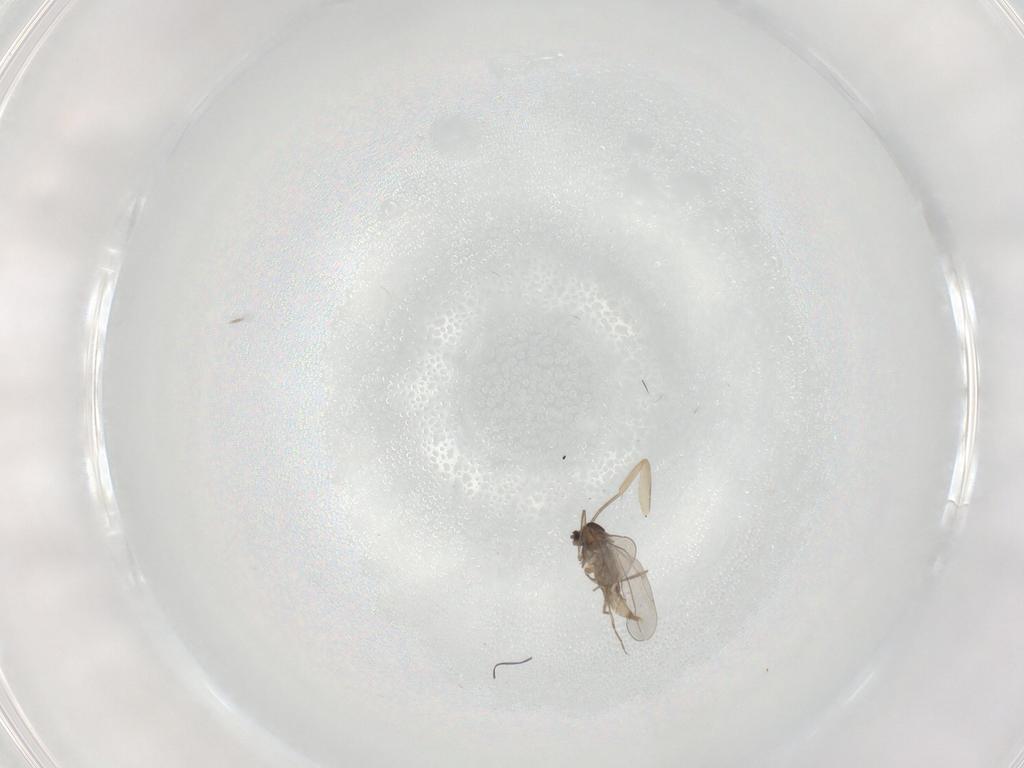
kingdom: Animalia
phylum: Arthropoda
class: Insecta
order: Diptera
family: Phoridae
